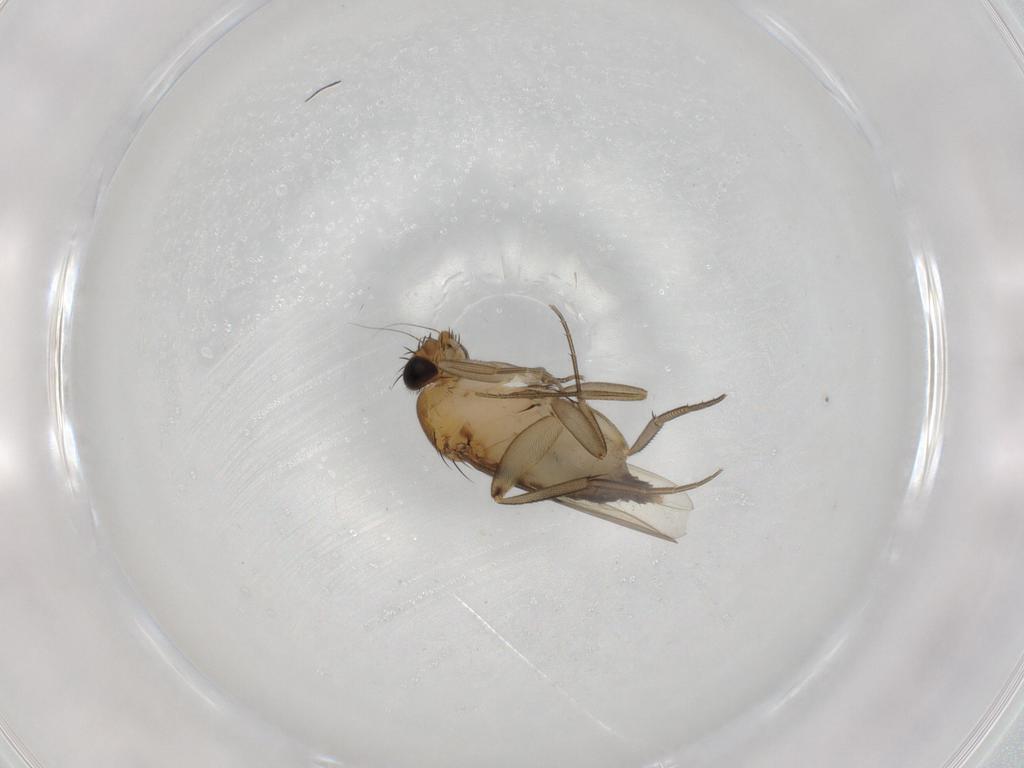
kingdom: Animalia
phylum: Arthropoda
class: Insecta
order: Diptera
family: Phoridae
